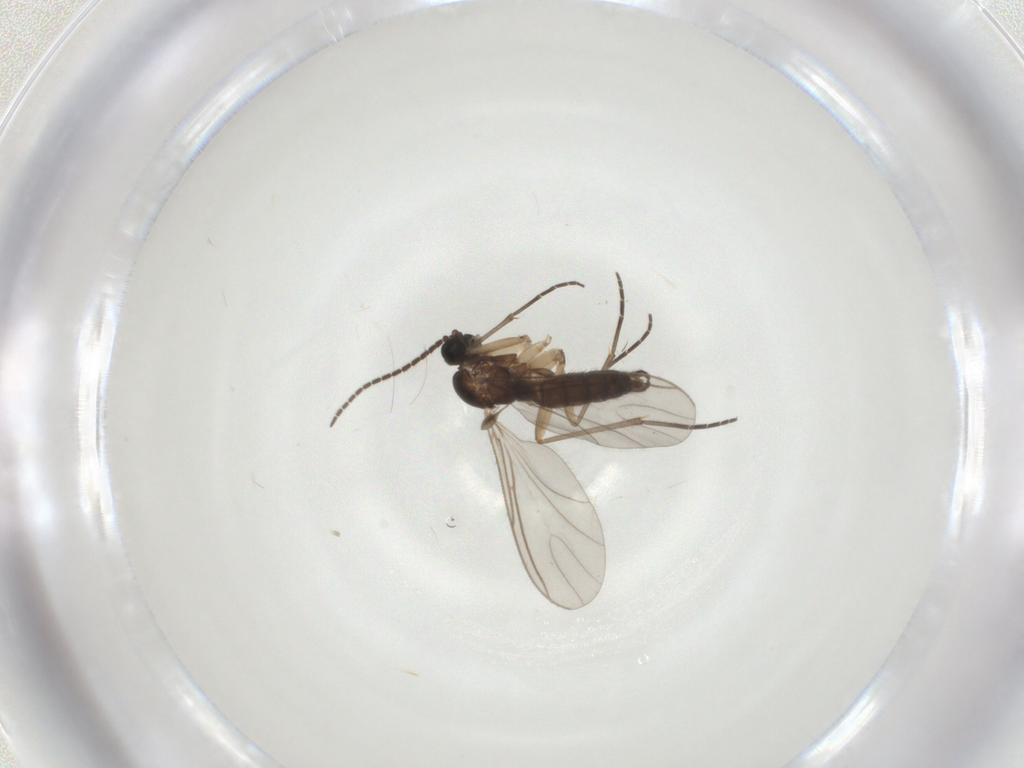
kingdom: Animalia
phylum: Arthropoda
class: Insecta
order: Diptera
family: Sciaridae
